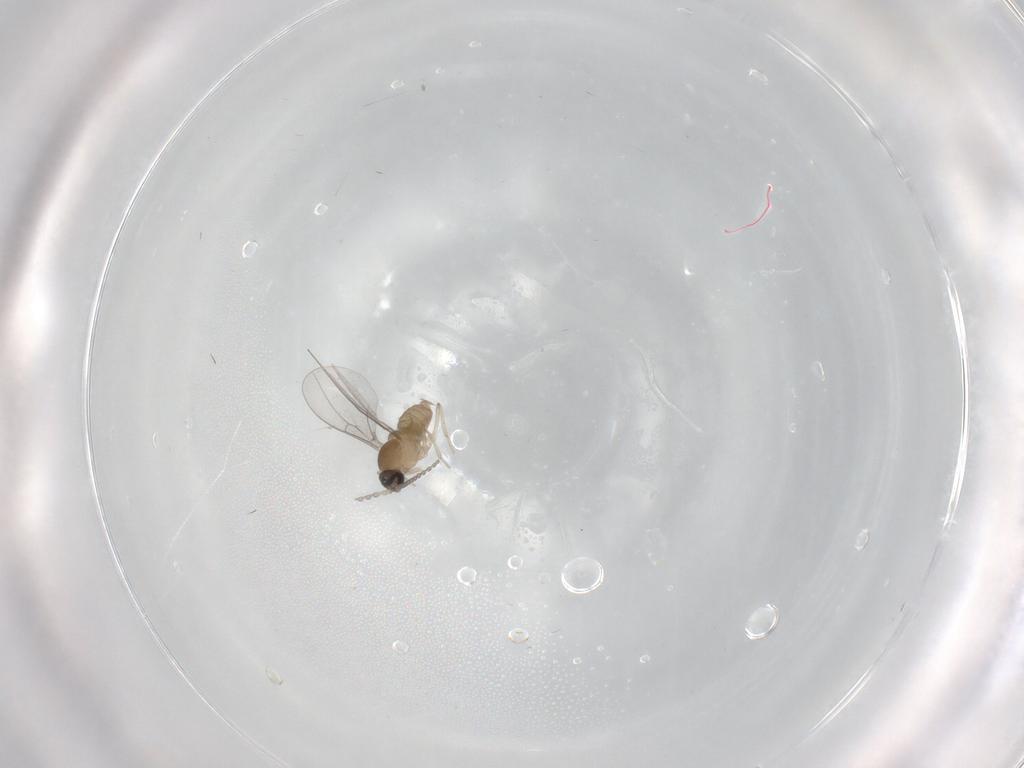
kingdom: Animalia
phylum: Arthropoda
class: Insecta
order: Diptera
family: Cecidomyiidae
